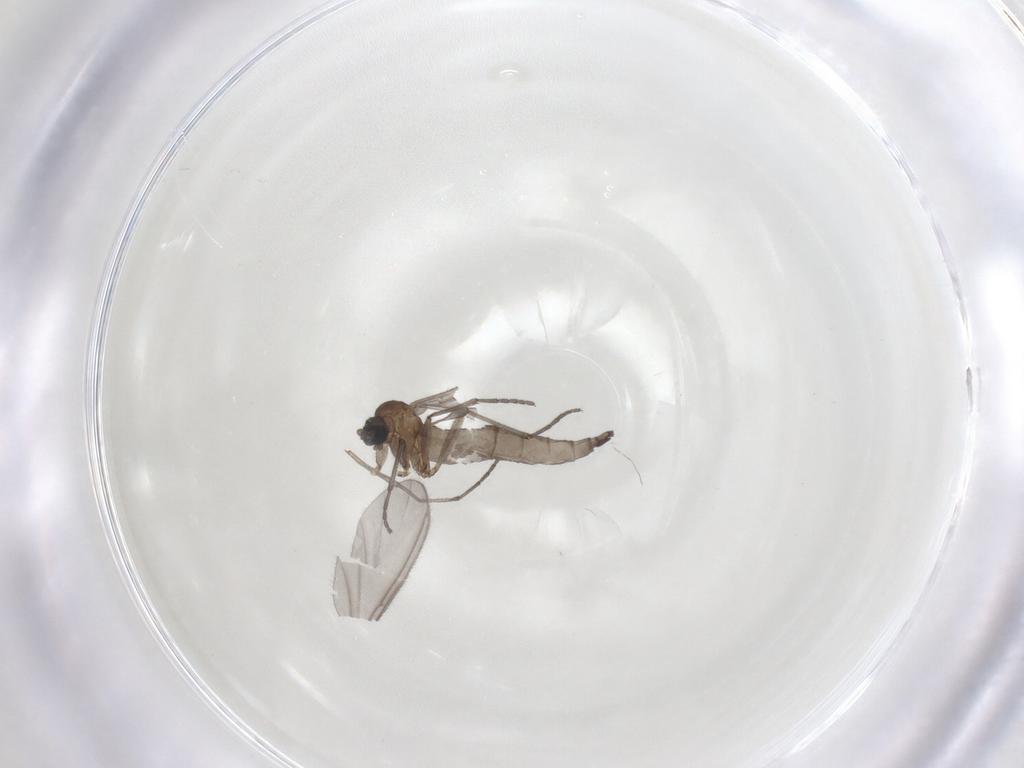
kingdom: Animalia
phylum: Arthropoda
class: Insecta
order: Diptera
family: Sciaridae
